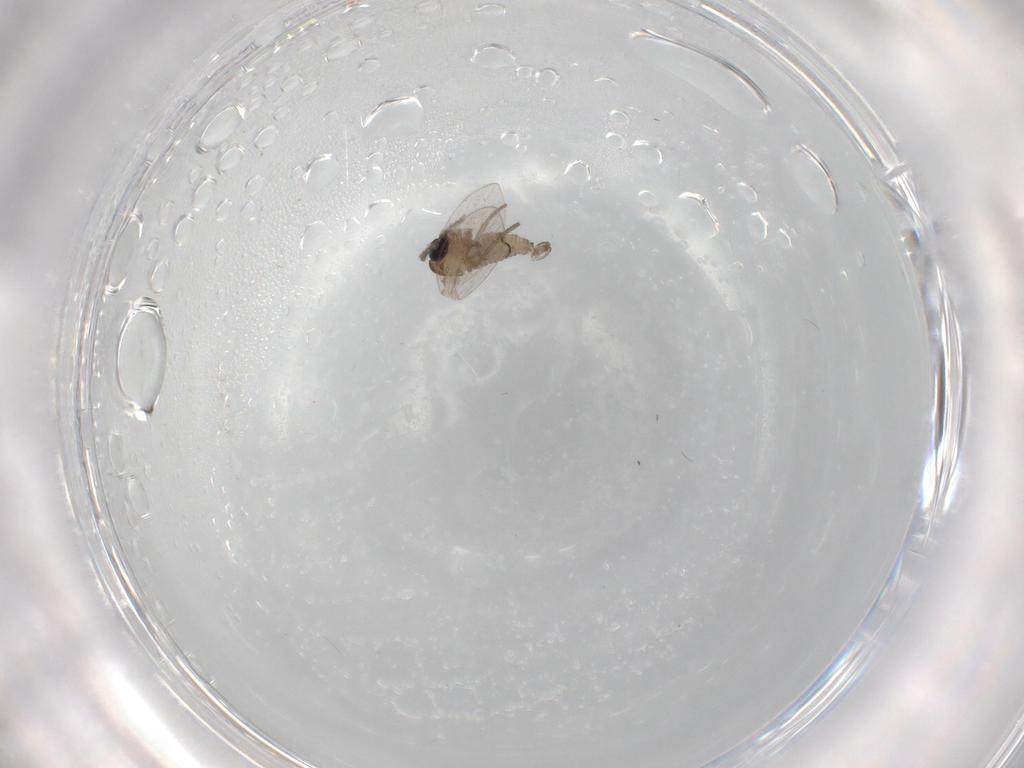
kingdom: Animalia
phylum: Arthropoda
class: Insecta
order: Diptera
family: Psychodidae
